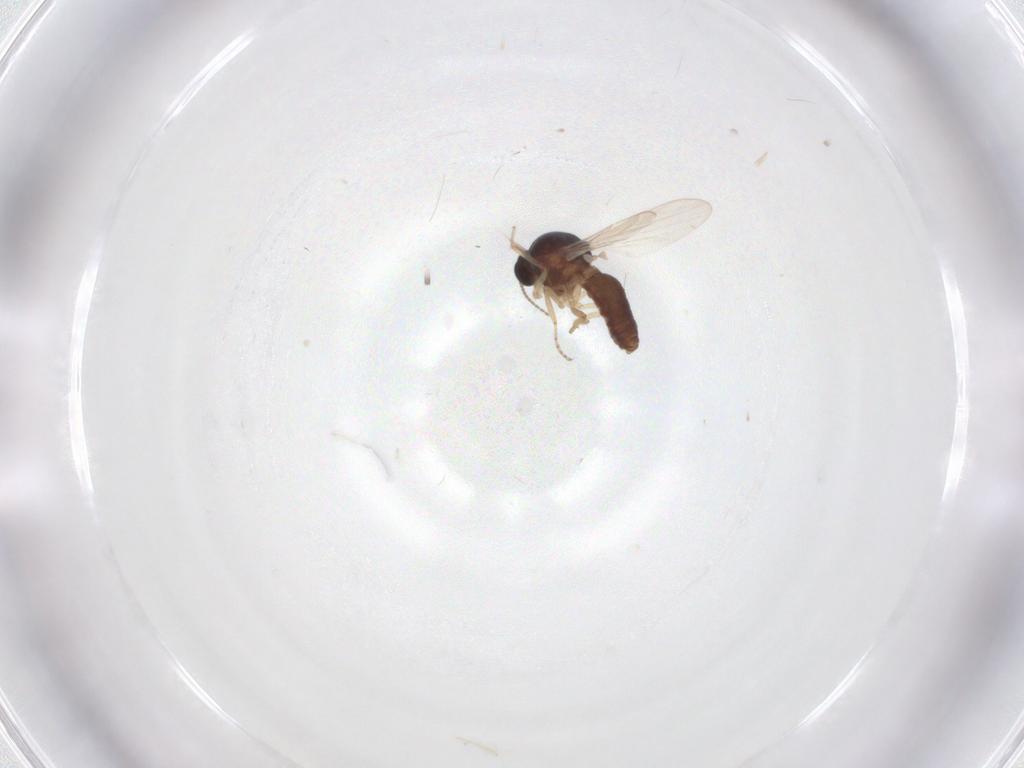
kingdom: Animalia
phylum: Arthropoda
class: Insecta
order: Diptera
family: Ceratopogonidae
